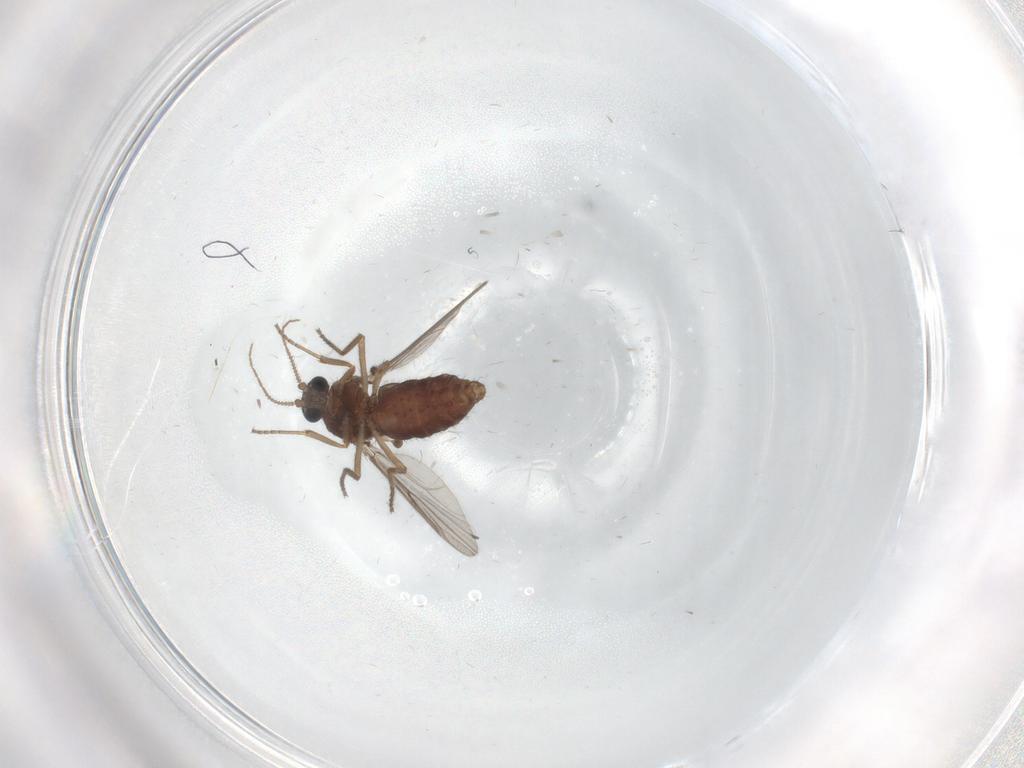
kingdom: Animalia
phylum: Arthropoda
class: Insecta
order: Diptera
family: Ceratopogonidae
